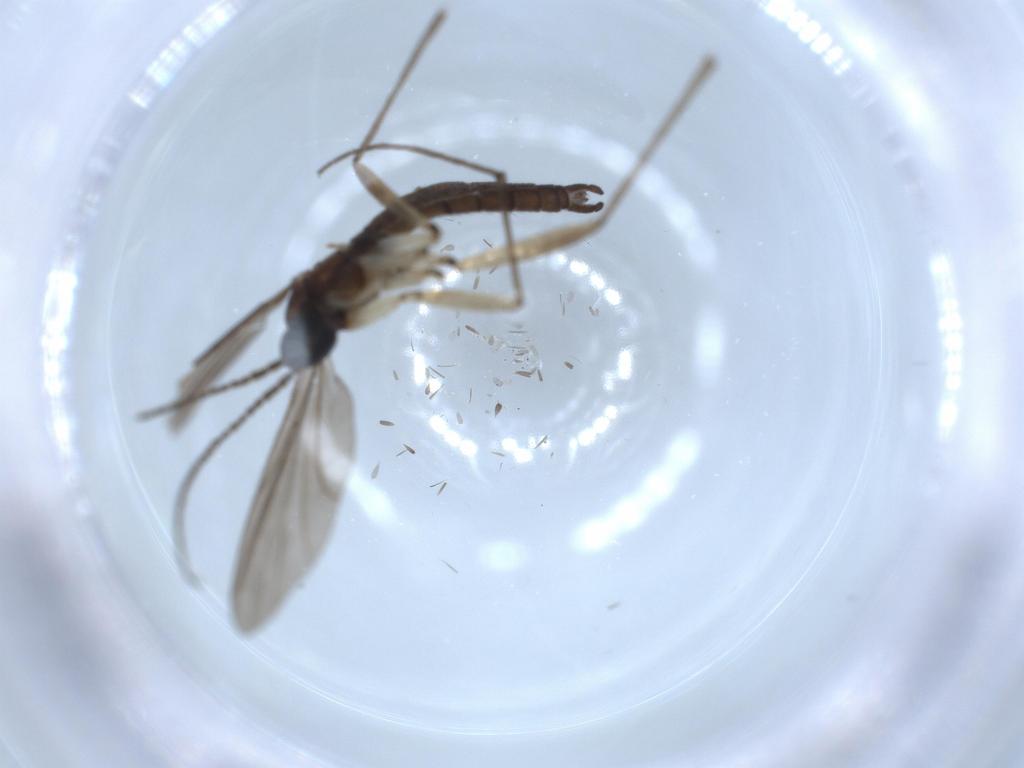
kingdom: Animalia
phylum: Arthropoda
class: Insecta
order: Diptera
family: Sciaridae
